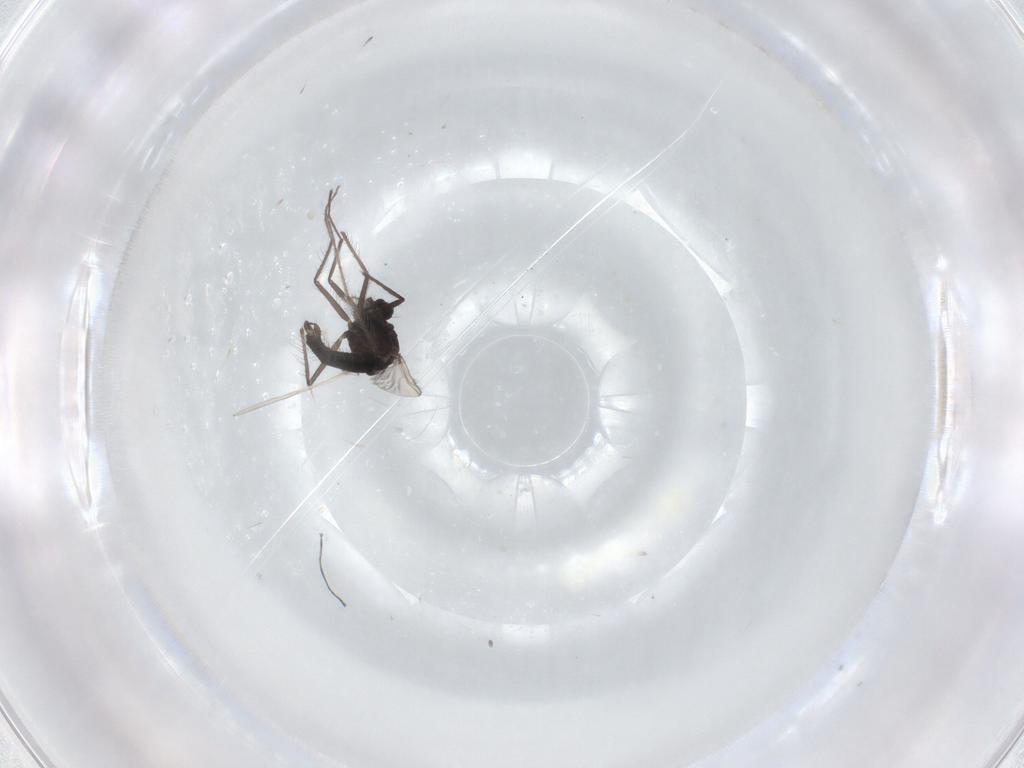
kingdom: Animalia
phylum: Arthropoda
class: Insecta
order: Diptera
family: Chironomidae
